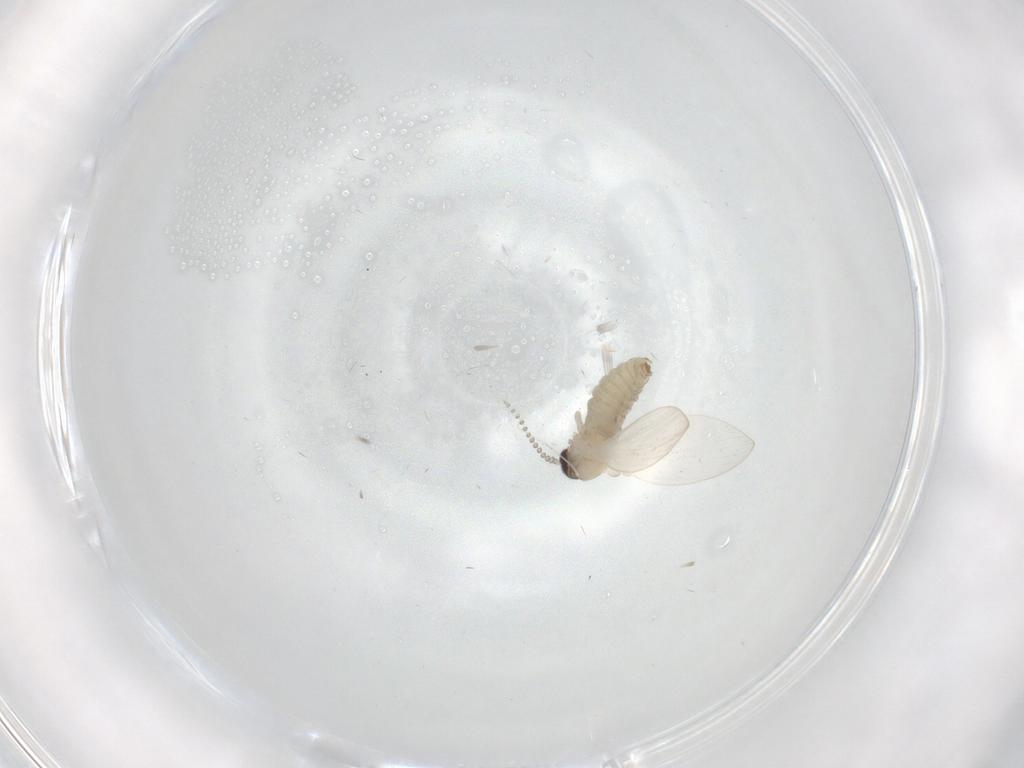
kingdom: Animalia
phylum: Arthropoda
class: Insecta
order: Diptera
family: Psychodidae
